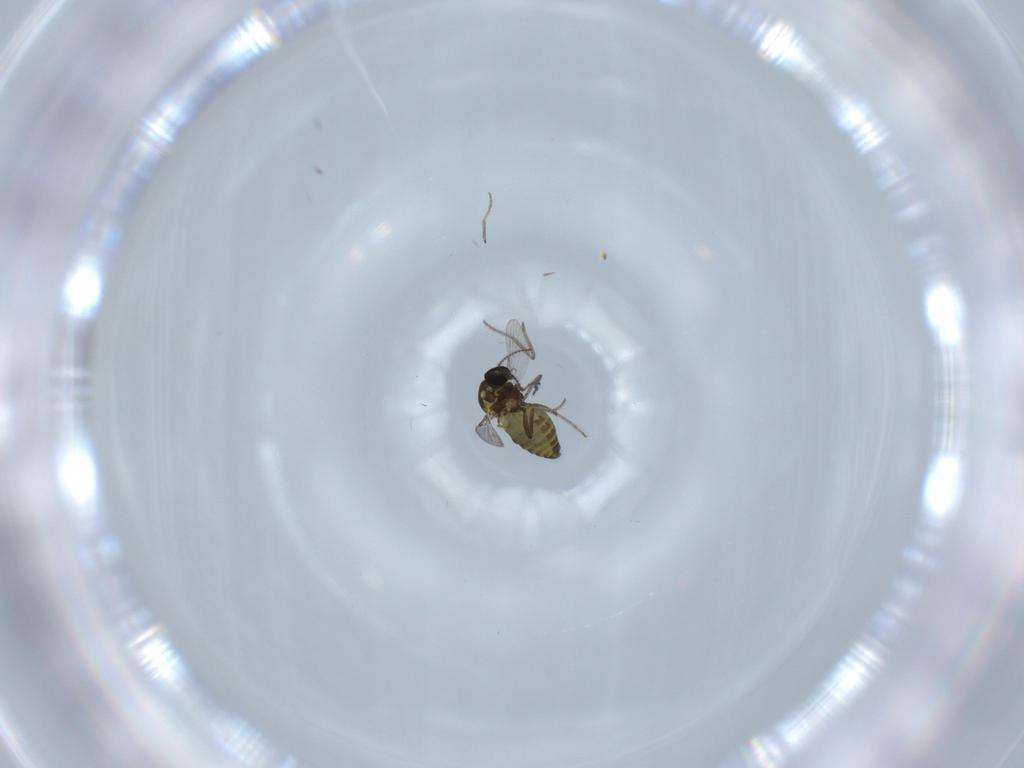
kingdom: Animalia
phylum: Arthropoda
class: Insecta
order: Diptera
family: Ceratopogonidae
